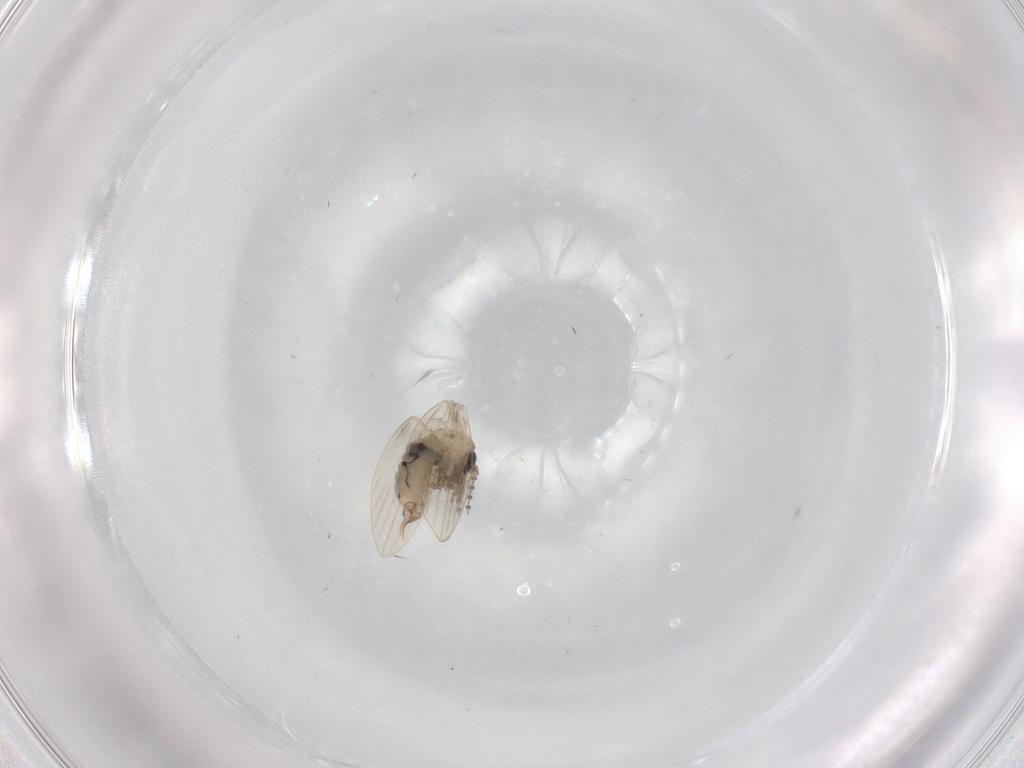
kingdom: Animalia
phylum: Arthropoda
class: Insecta
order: Diptera
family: Psychodidae
